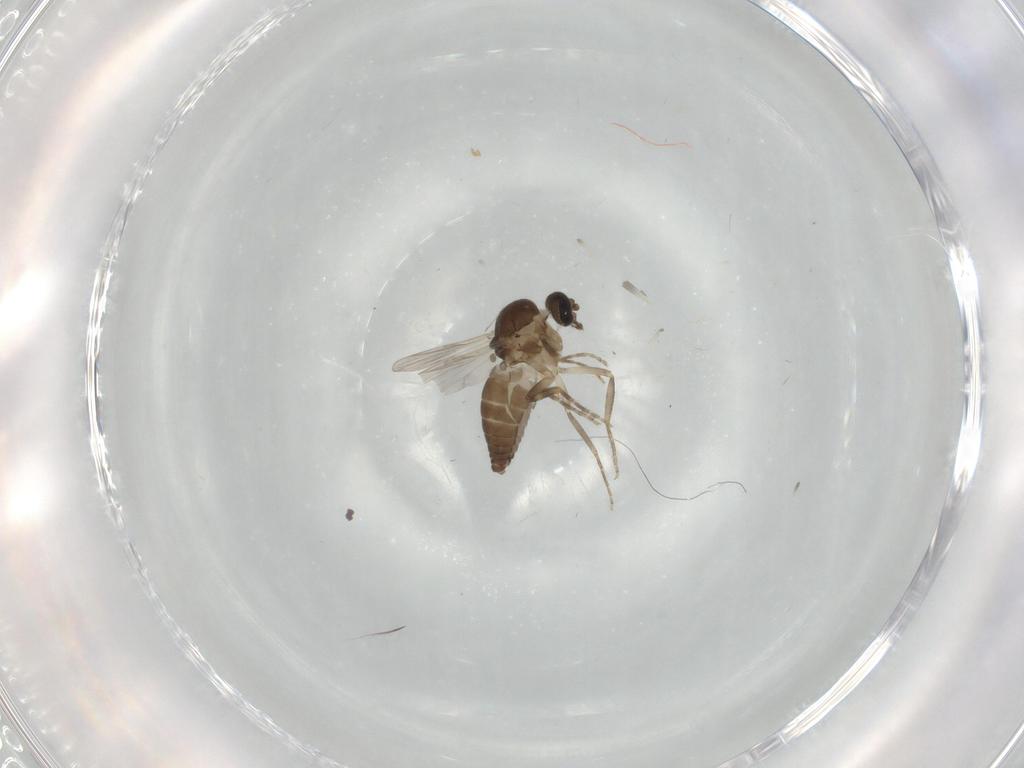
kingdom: Animalia
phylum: Arthropoda
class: Insecta
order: Diptera
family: Ceratopogonidae
